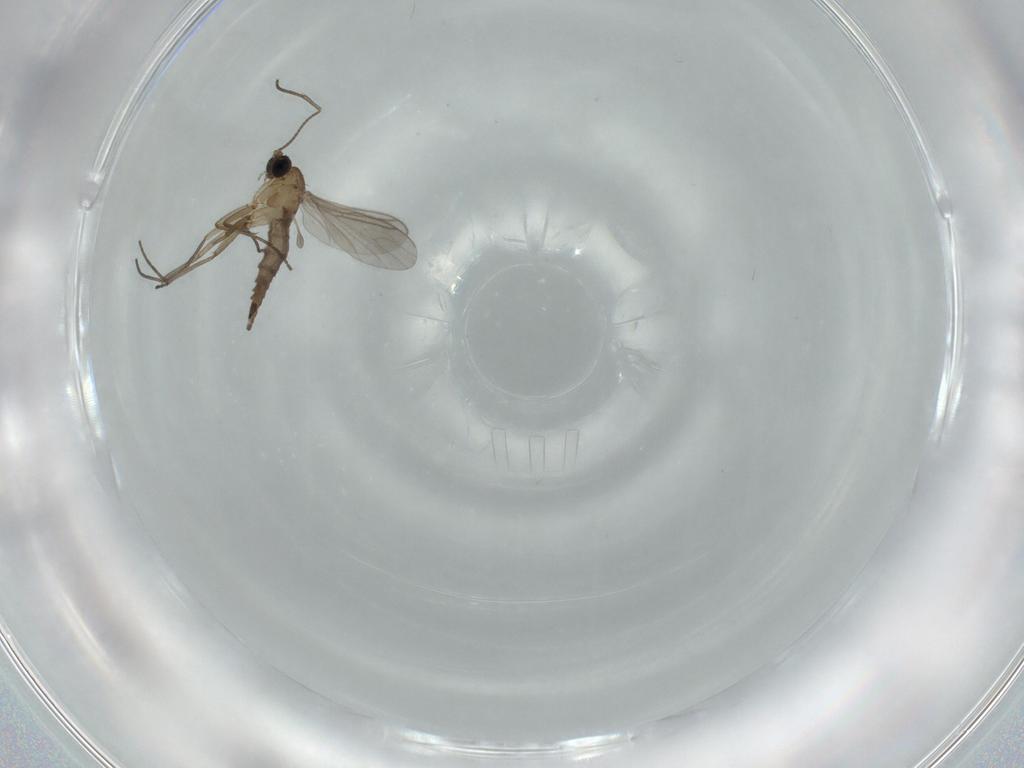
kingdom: Animalia
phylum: Arthropoda
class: Insecta
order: Diptera
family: Sciaridae
